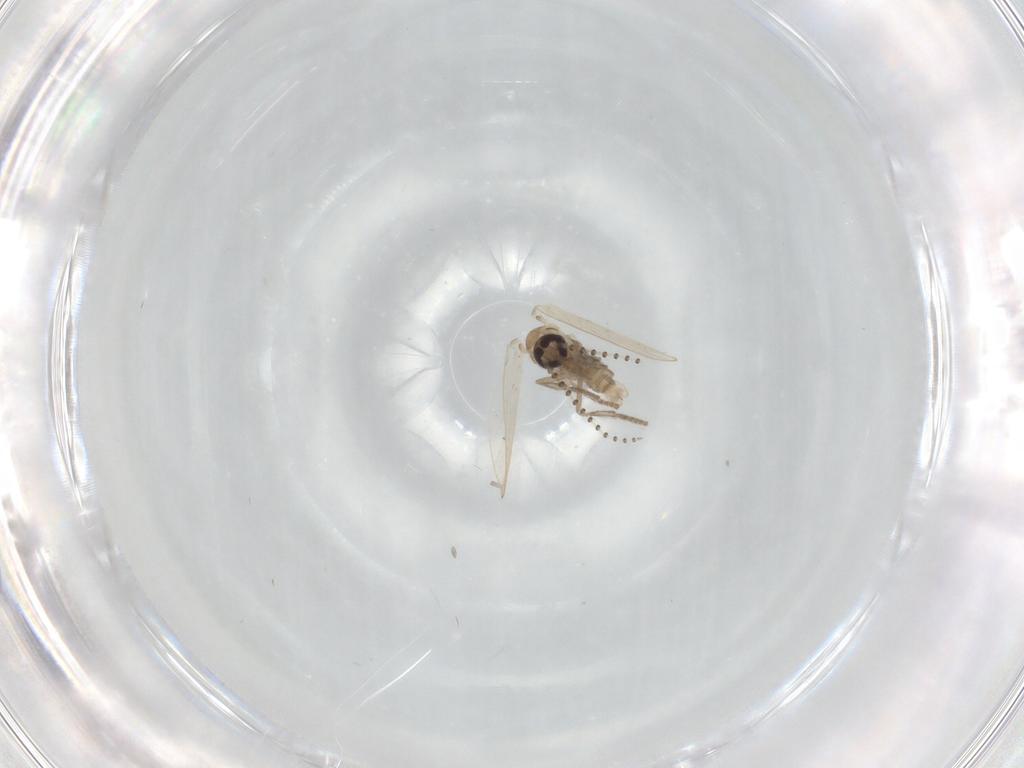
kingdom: Animalia
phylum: Arthropoda
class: Insecta
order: Diptera
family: Psychodidae
